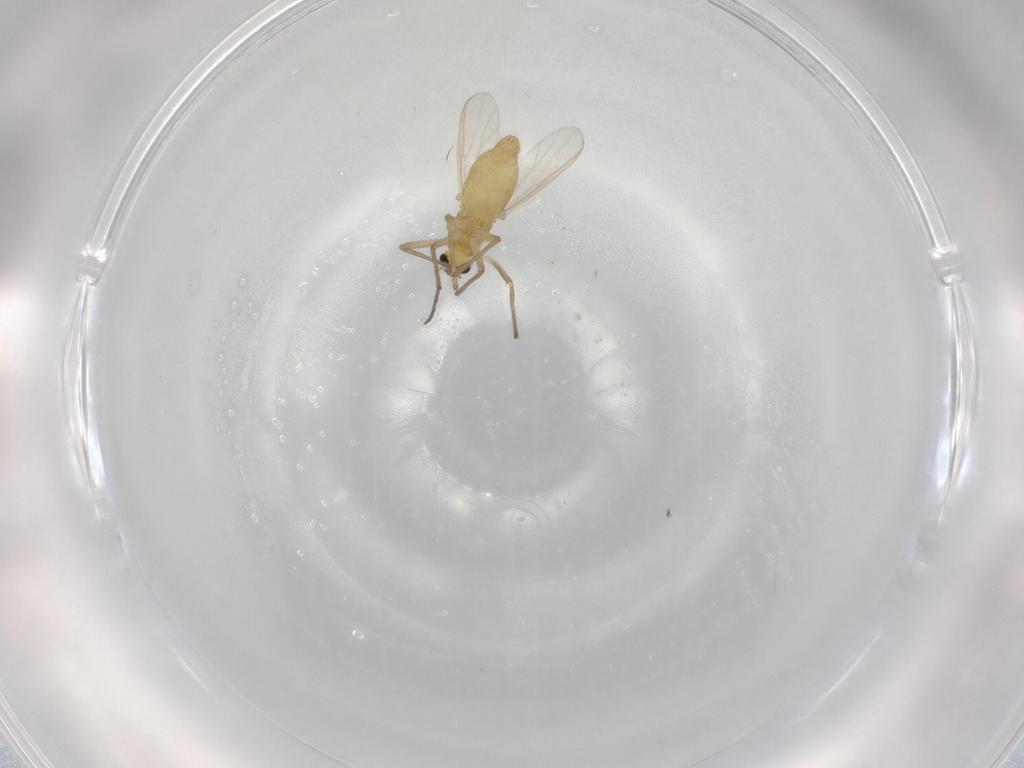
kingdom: Animalia
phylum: Arthropoda
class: Insecta
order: Diptera
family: Chironomidae
